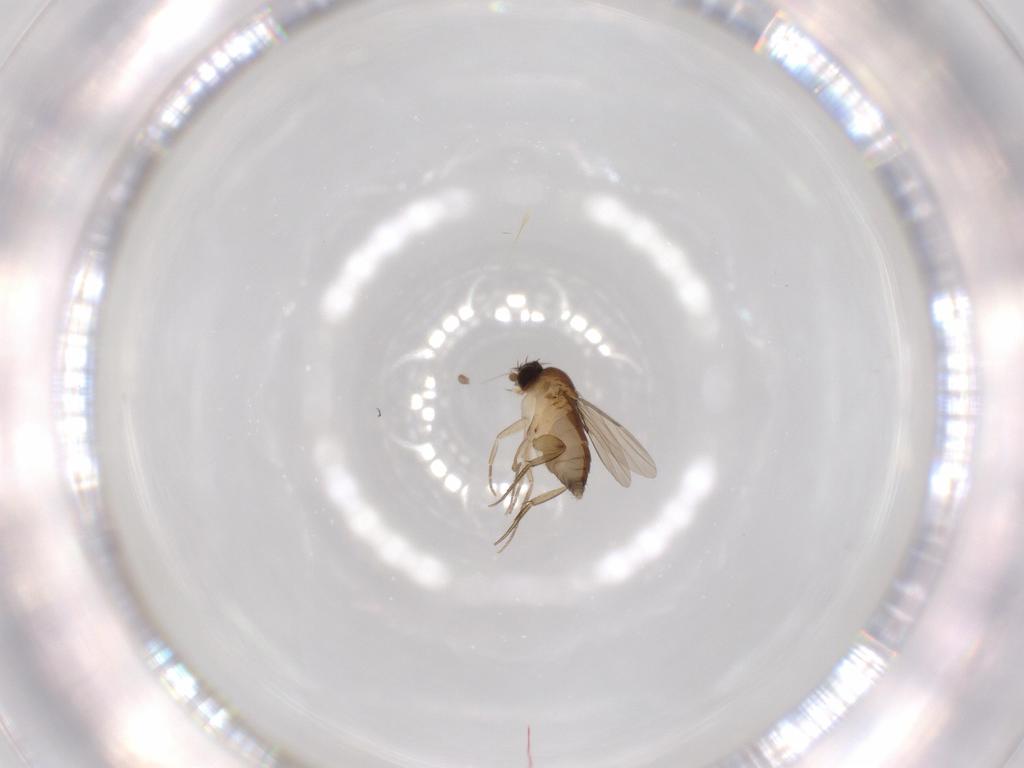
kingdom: Animalia
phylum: Arthropoda
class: Insecta
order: Diptera
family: Phoridae
